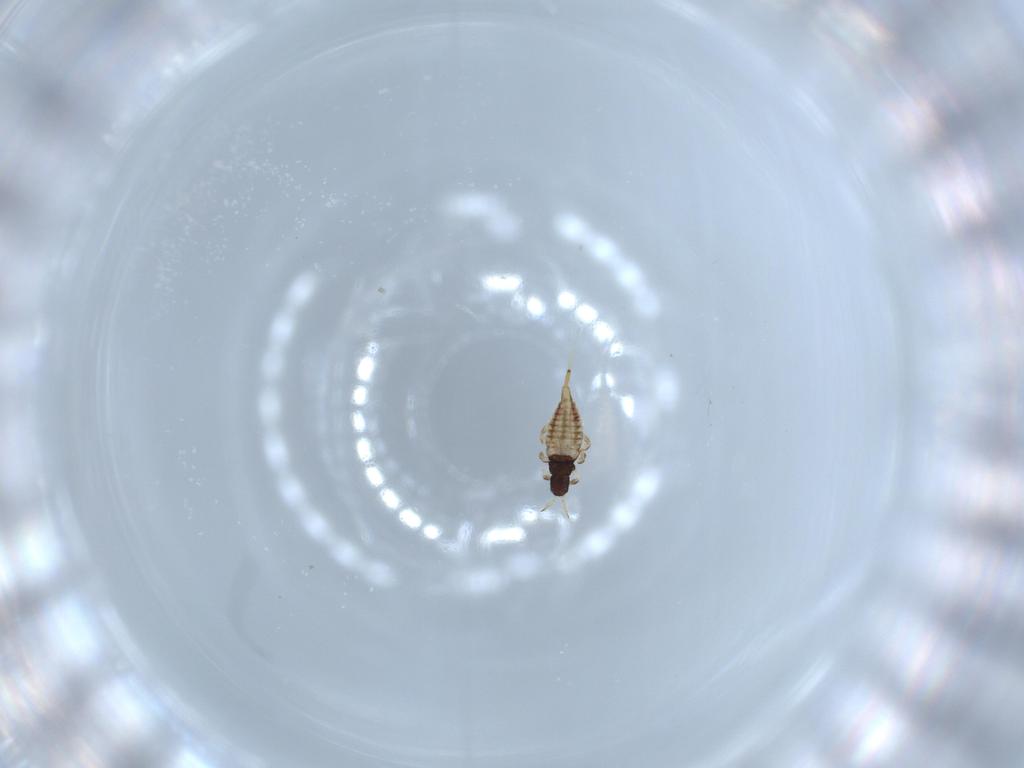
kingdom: Animalia
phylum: Arthropoda
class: Insecta
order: Thysanoptera
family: Phlaeothripidae
